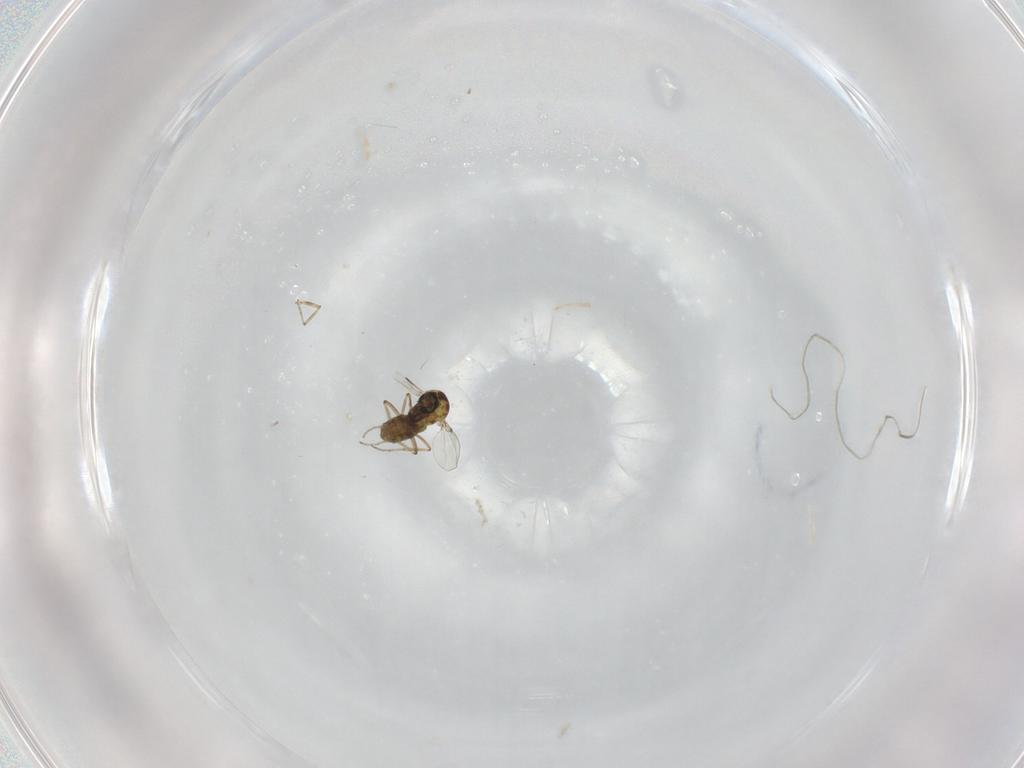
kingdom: Animalia
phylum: Arthropoda
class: Insecta
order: Diptera
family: Ceratopogonidae
